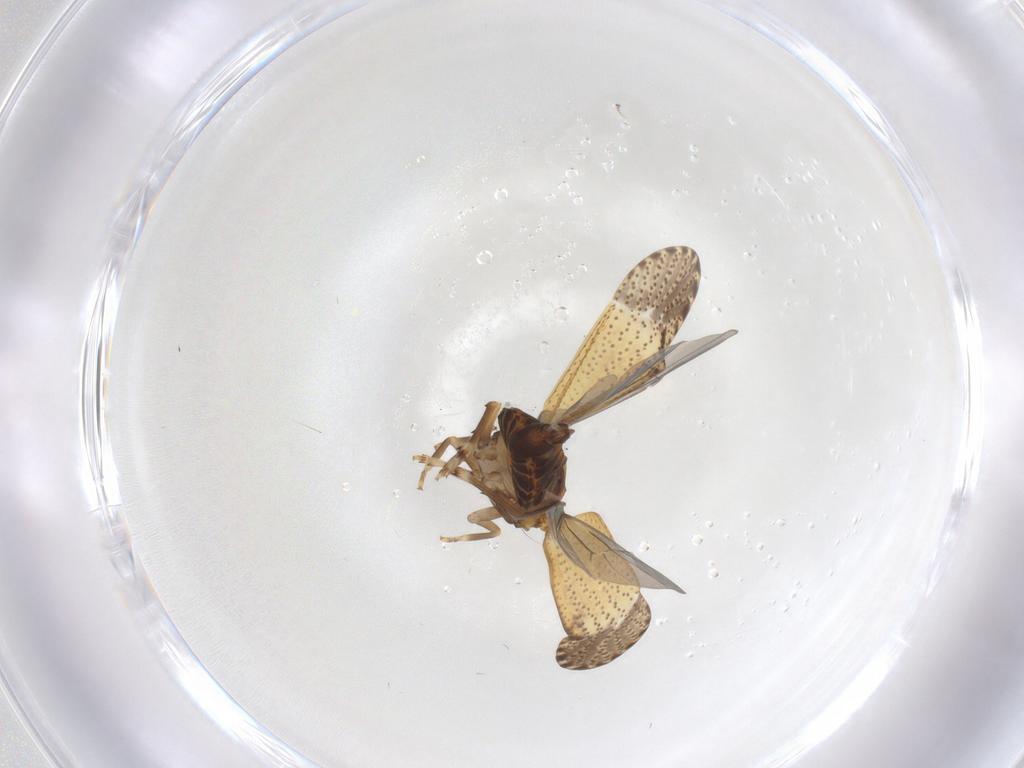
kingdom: Animalia
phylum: Arthropoda
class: Insecta
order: Hemiptera
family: Delphacidae
